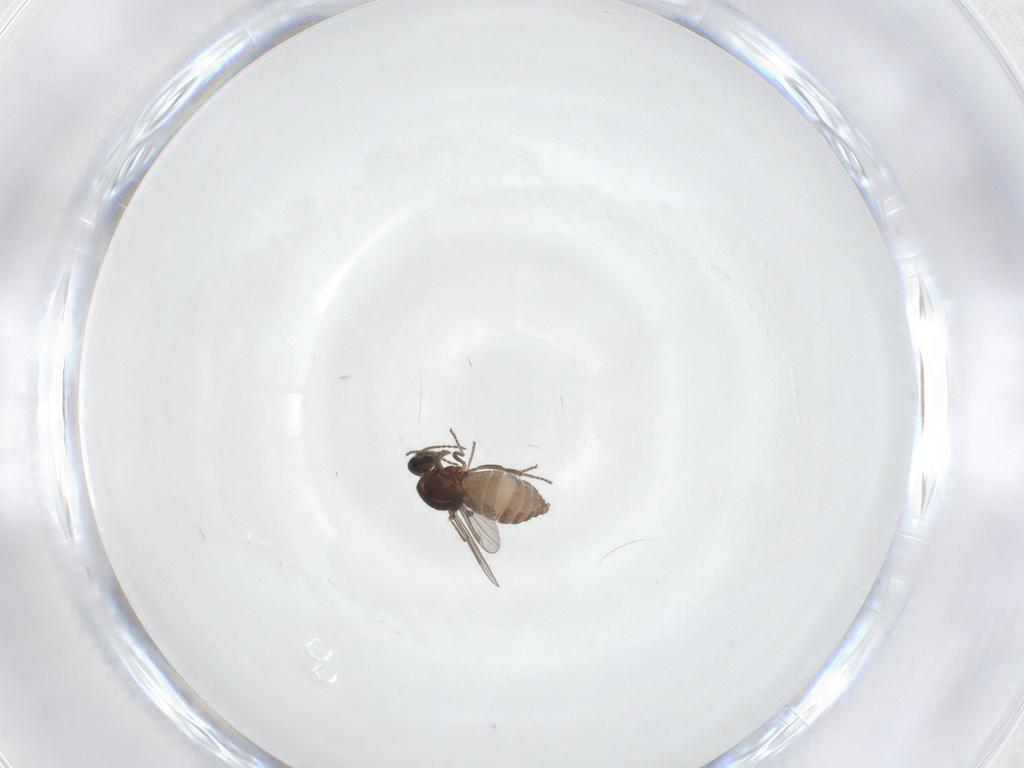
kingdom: Animalia
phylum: Arthropoda
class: Insecta
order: Diptera
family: Ceratopogonidae
